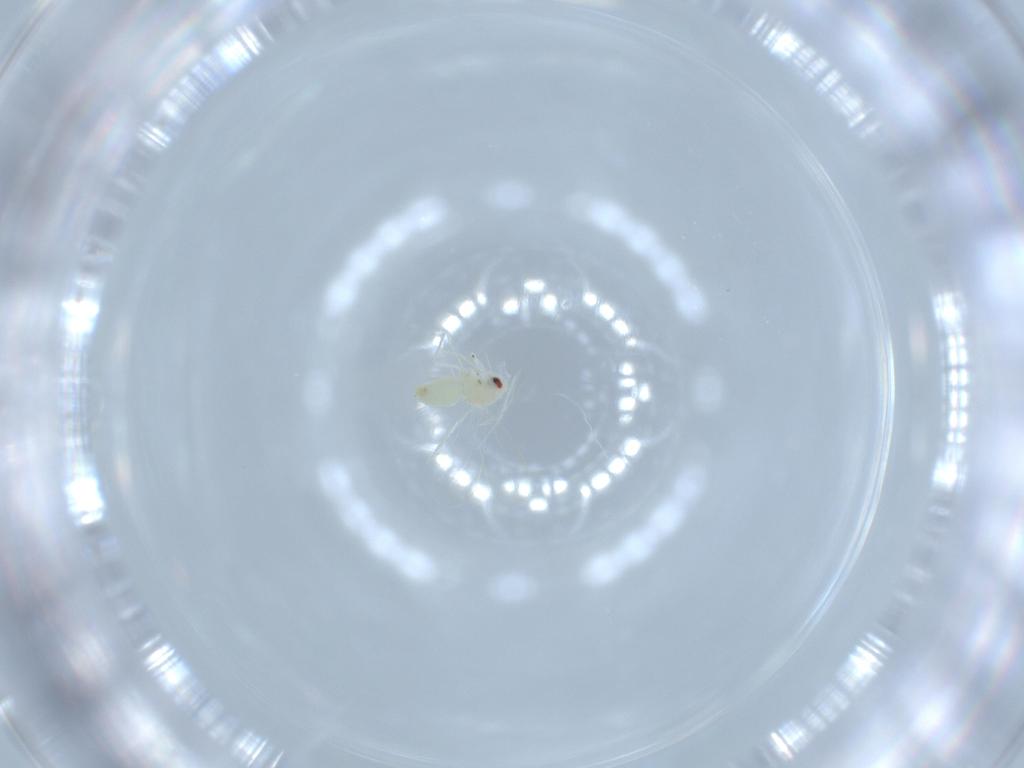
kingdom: Animalia
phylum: Arthropoda
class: Insecta
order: Hemiptera
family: Aleyrodidae
